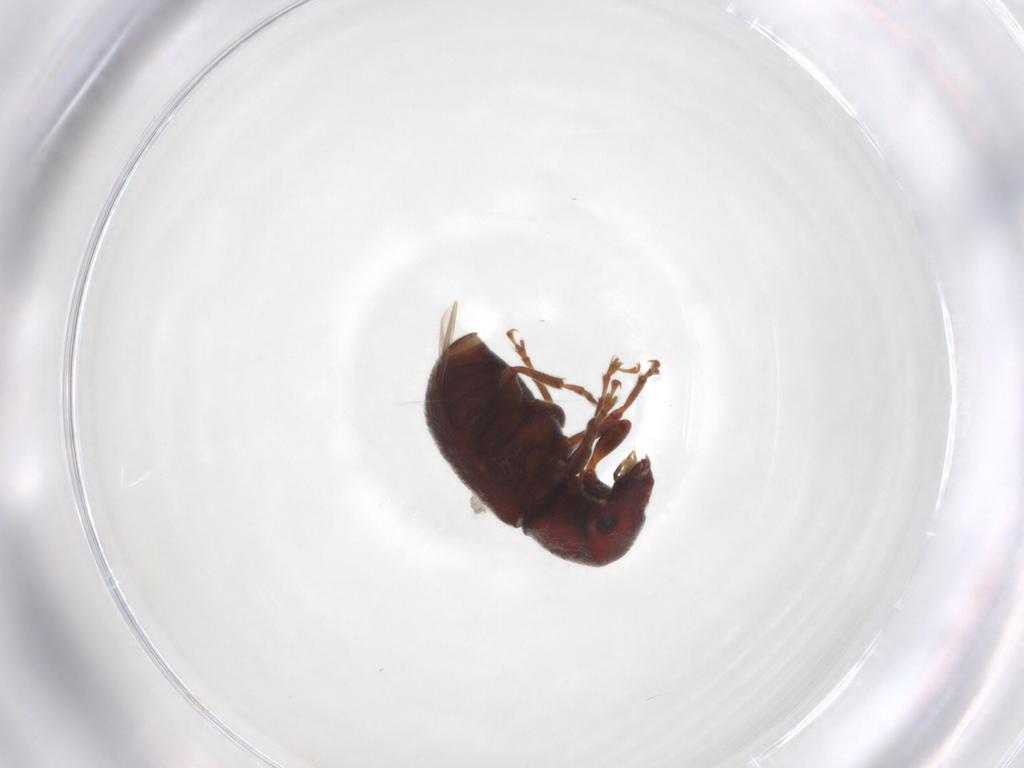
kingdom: Animalia
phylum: Arthropoda
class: Insecta
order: Coleoptera
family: Anthribidae
